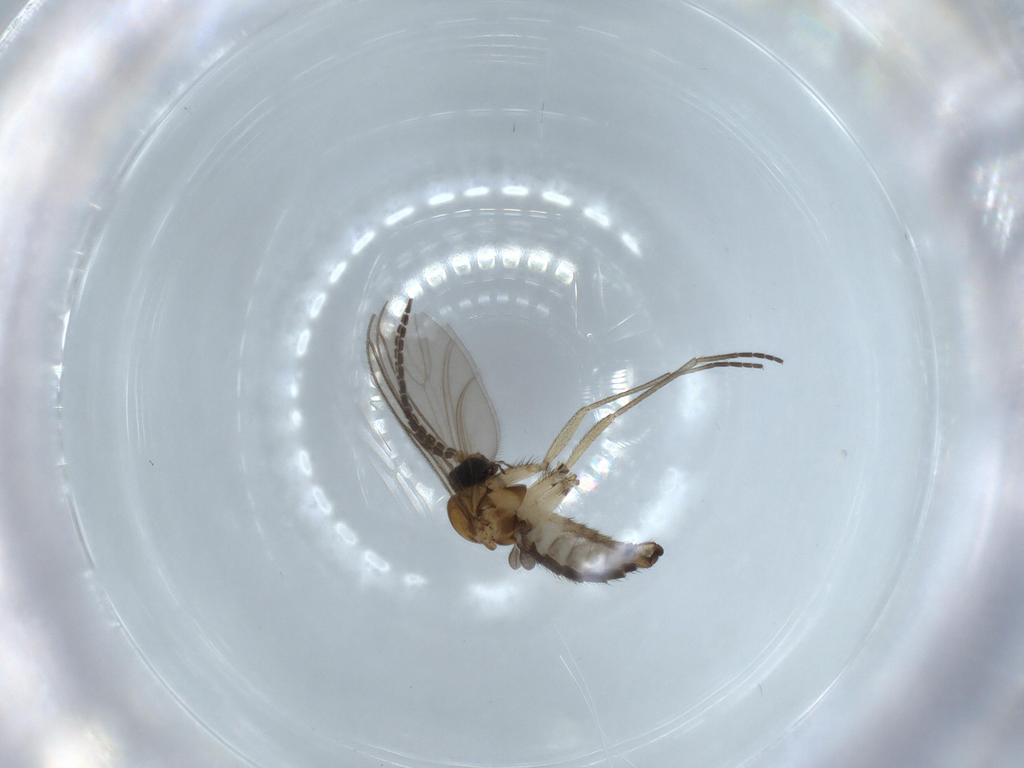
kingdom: Animalia
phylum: Arthropoda
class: Insecta
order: Diptera
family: Sciaridae
